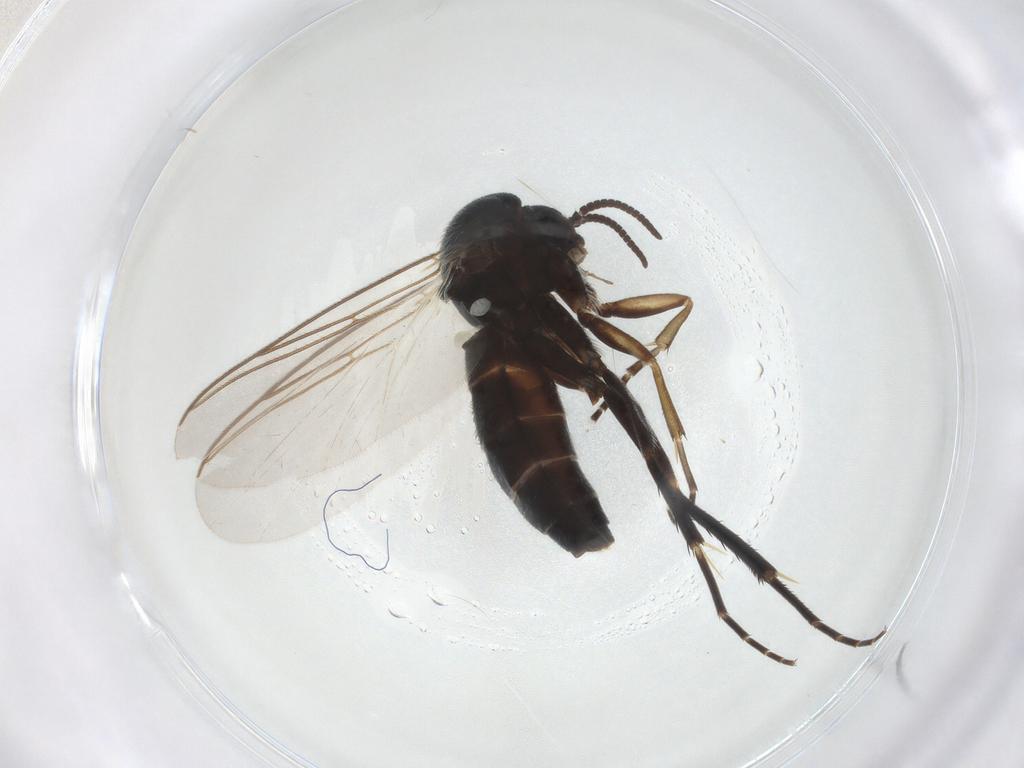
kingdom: Animalia
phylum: Arthropoda
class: Insecta
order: Diptera
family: Mycetophilidae
